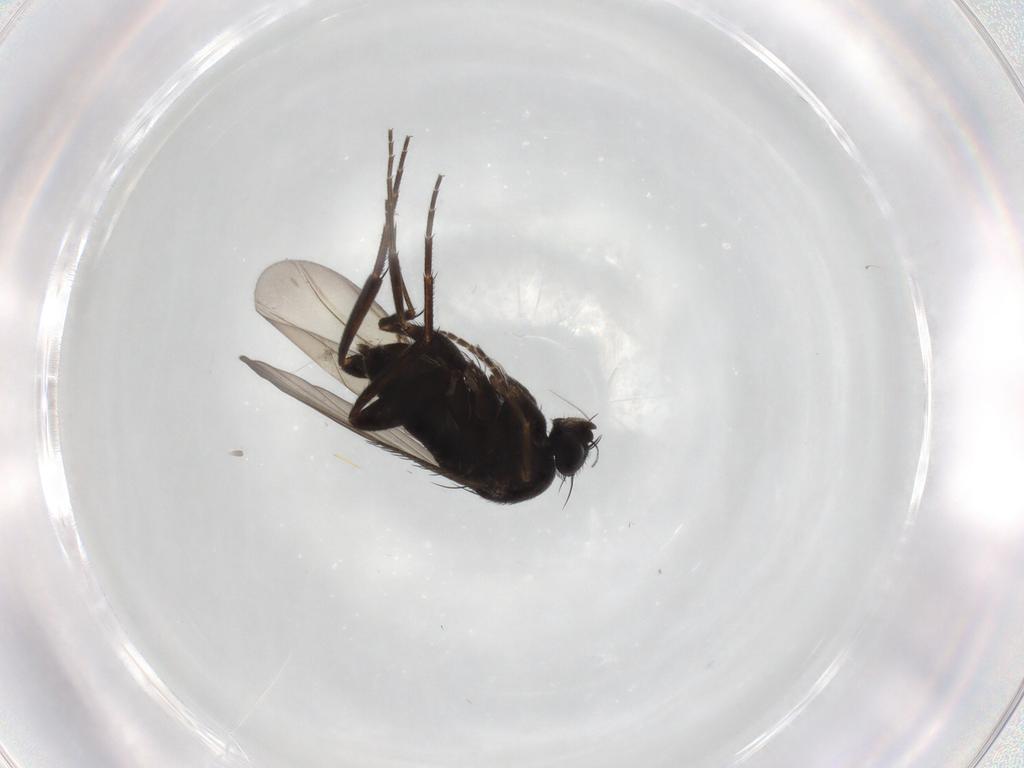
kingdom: Animalia
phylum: Arthropoda
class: Insecta
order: Diptera
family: Phoridae
